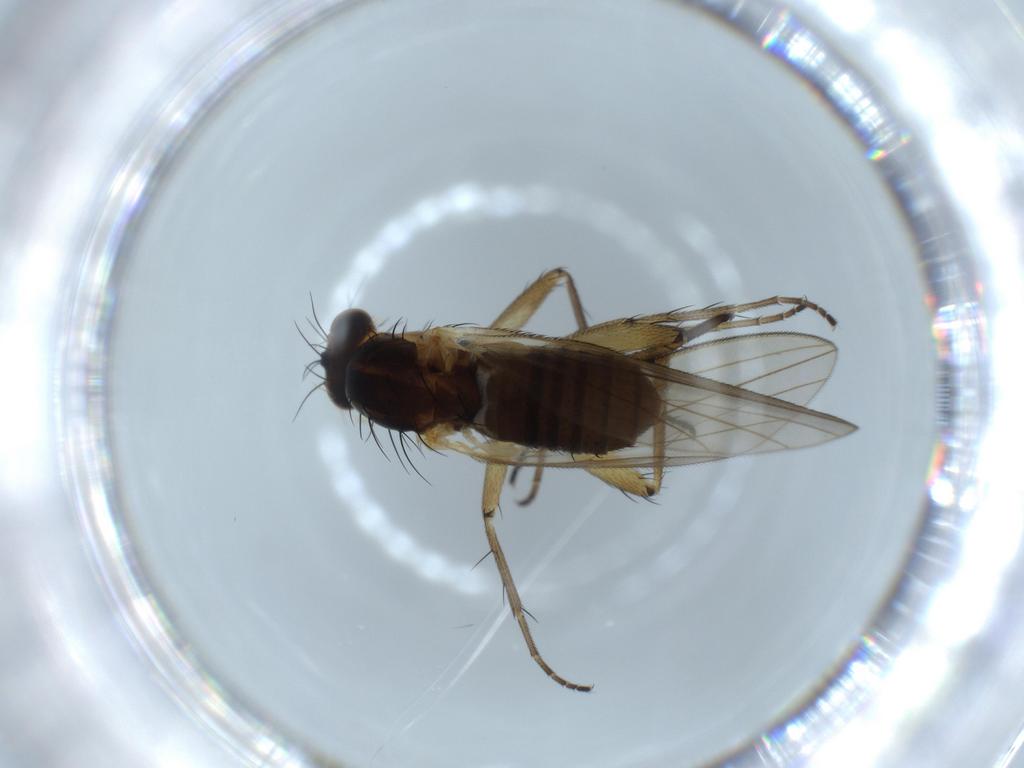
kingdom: Animalia
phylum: Arthropoda
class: Insecta
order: Diptera
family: Lonchopteridae
